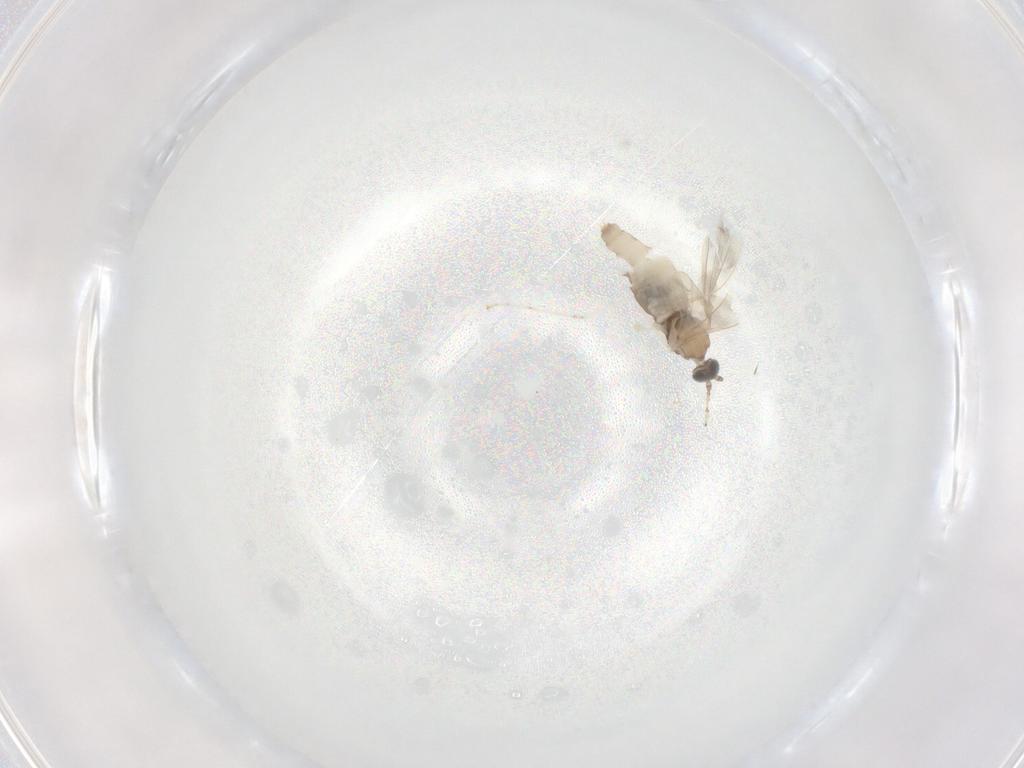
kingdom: Animalia
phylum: Arthropoda
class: Insecta
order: Diptera
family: Cecidomyiidae
